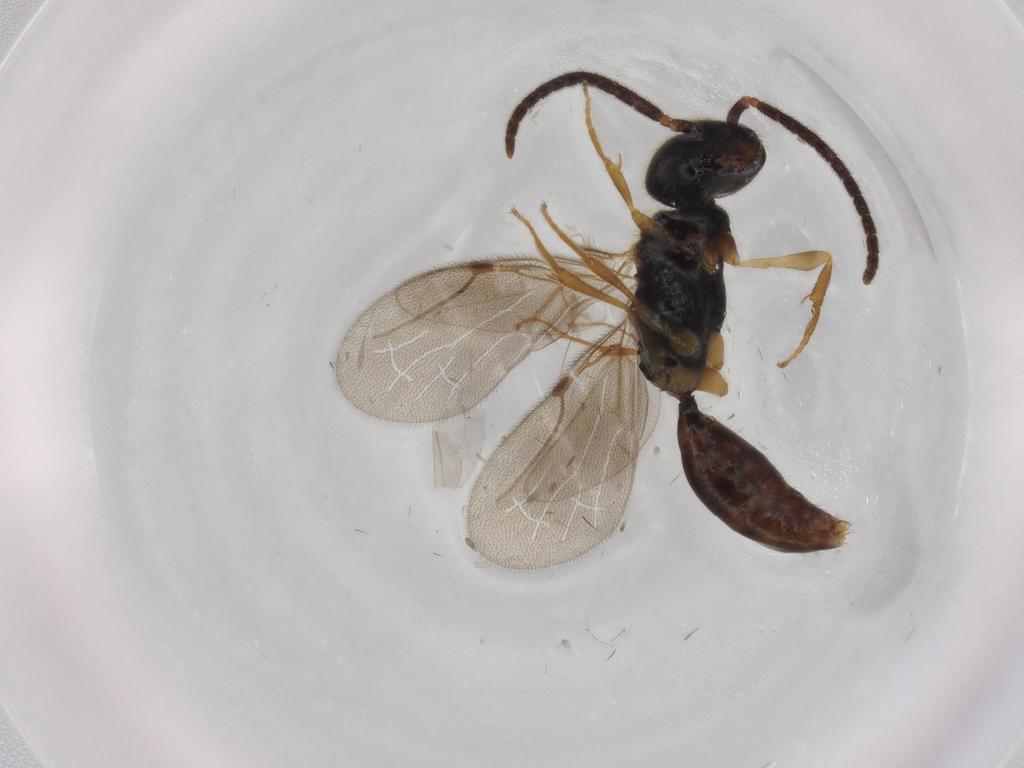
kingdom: Animalia
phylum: Arthropoda
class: Insecta
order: Hymenoptera
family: Formicidae
